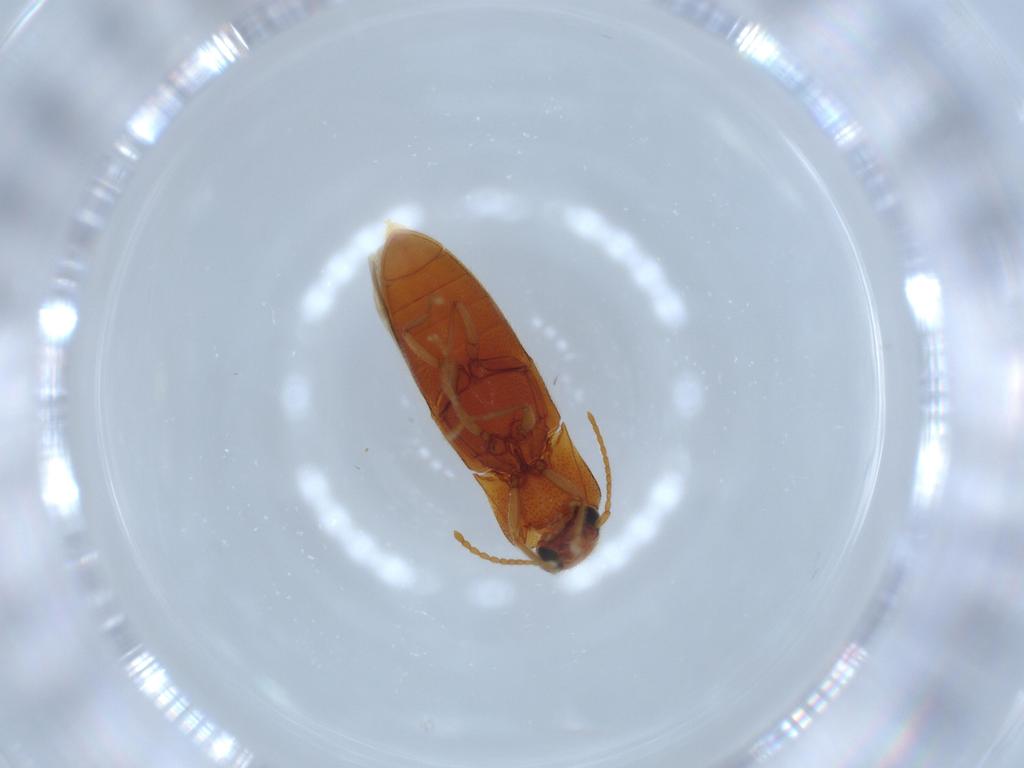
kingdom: Animalia
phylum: Arthropoda
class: Insecta
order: Coleoptera
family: Elateridae
